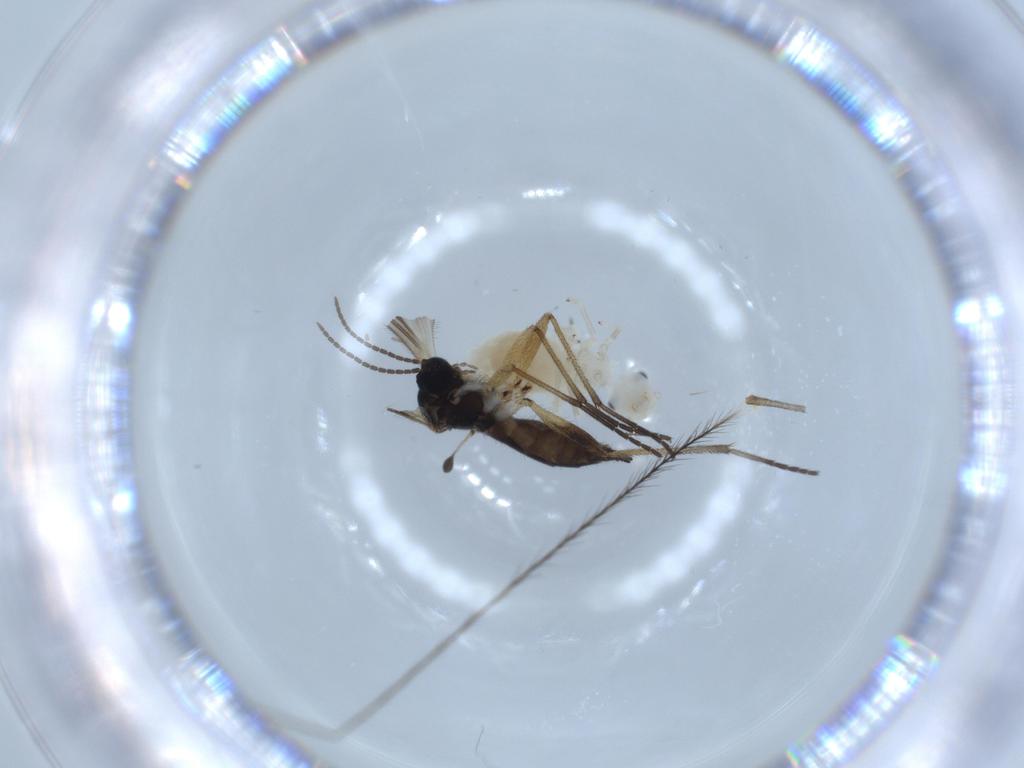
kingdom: Animalia
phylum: Arthropoda
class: Insecta
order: Diptera
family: Sciaridae
